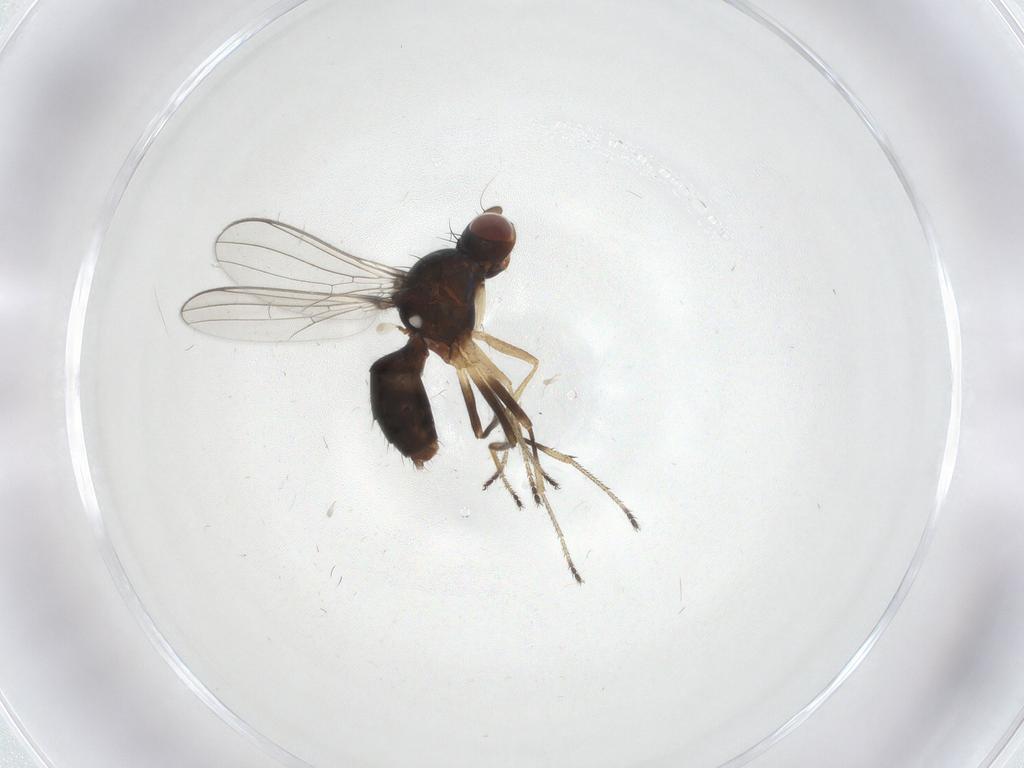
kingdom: Animalia
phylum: Arthropoda
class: Insecta
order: Diptera
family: Sepsidae
